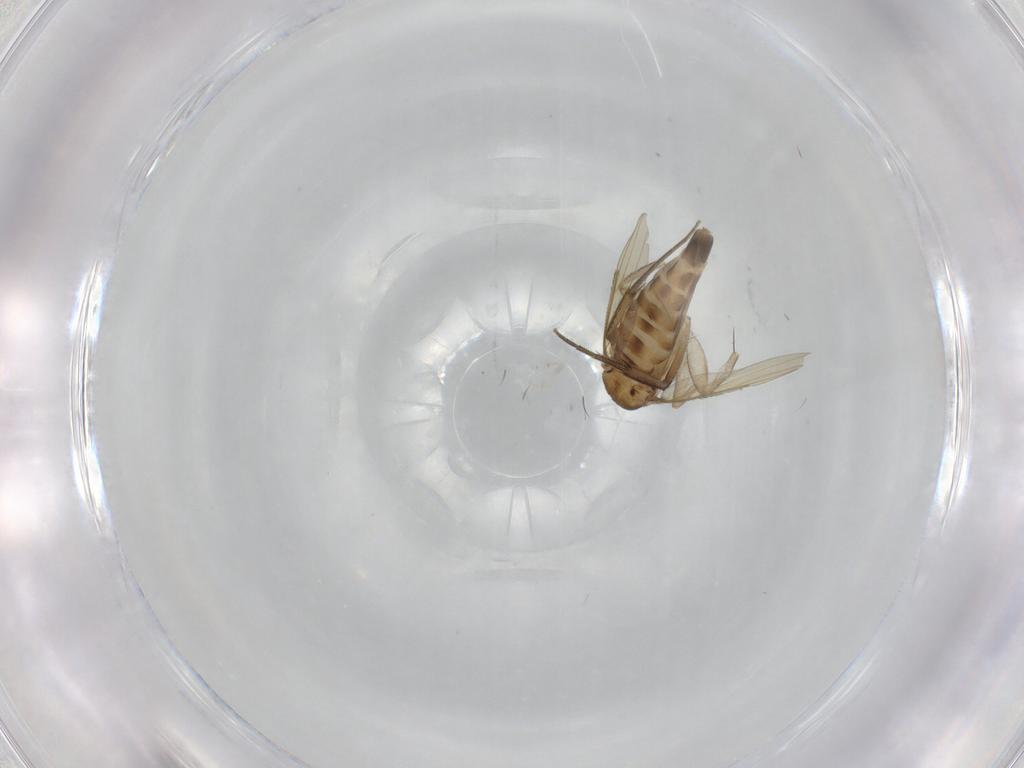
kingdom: Animalia
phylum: Arthropoda
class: Insecta
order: Diptera
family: Phoridae
